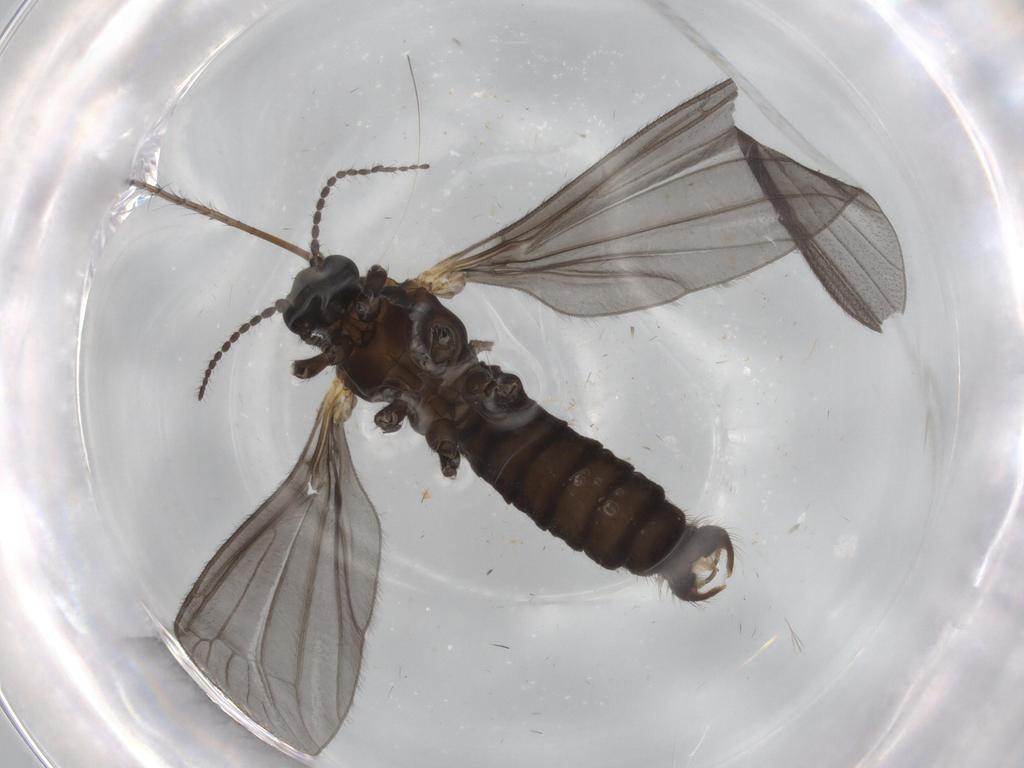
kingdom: Animalia
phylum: Arthropoda
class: Insecta
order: Diptera
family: Limoniidae
